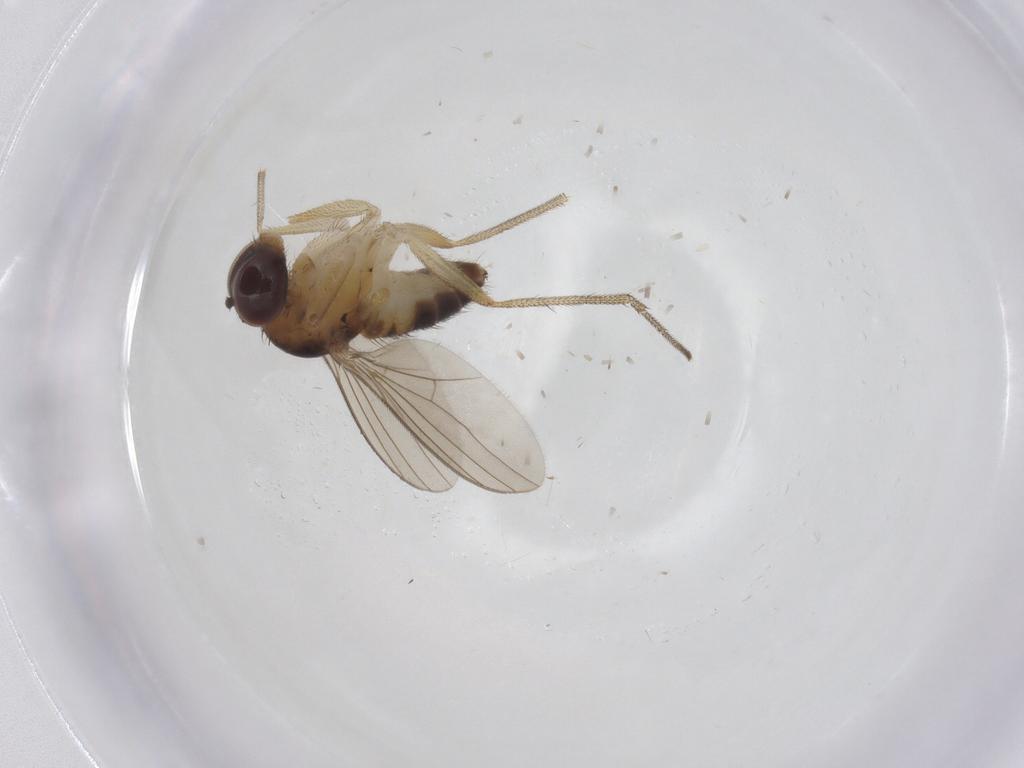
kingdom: Animalia
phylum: Arthropoda
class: Insecta
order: Diptera
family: Dolichopodidae
